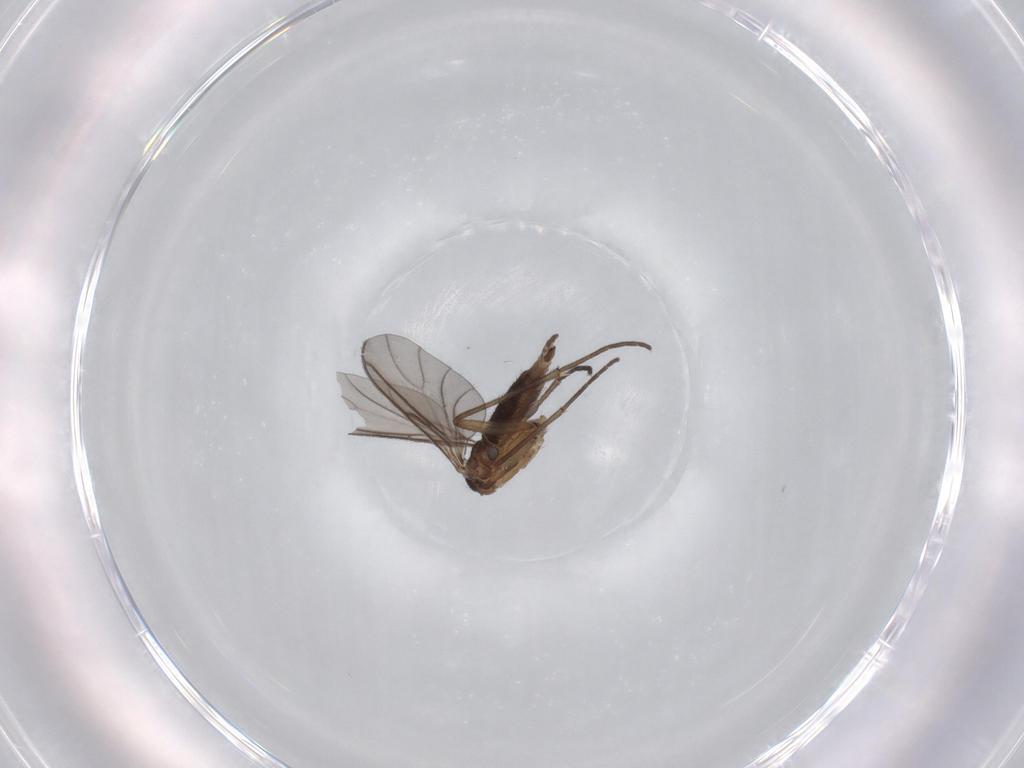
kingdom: Animalia
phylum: Arthropoda
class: Insecta
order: Diptera
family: Sciaridae
